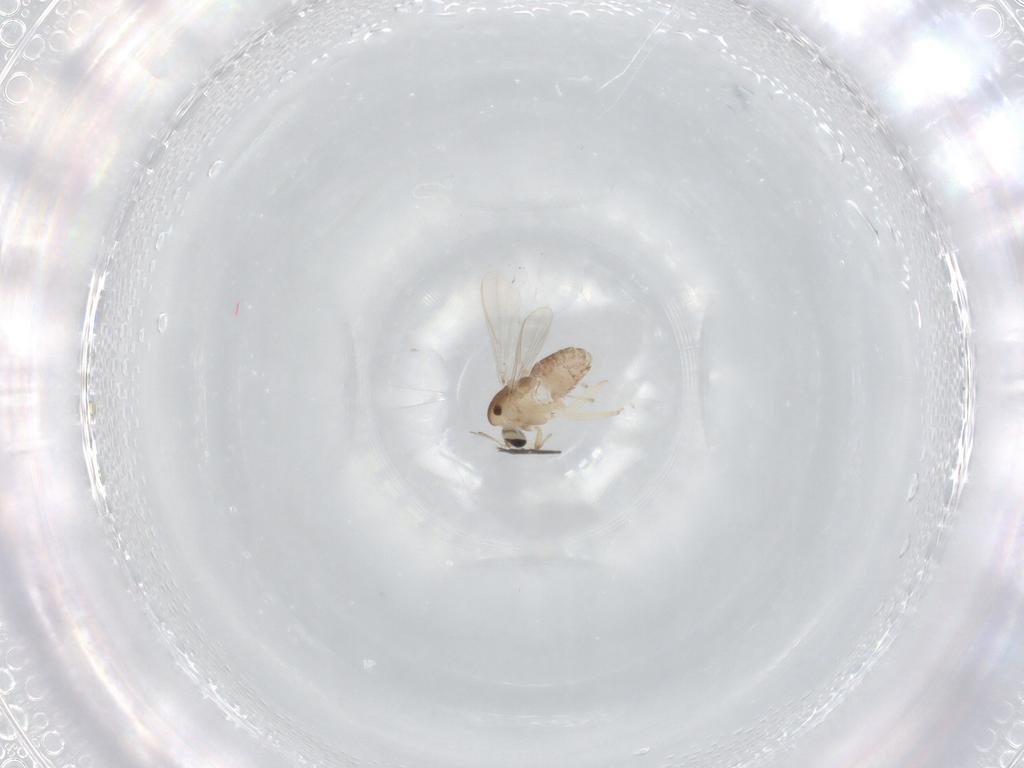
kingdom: Animalia
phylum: Arthropoda
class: Insecta
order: Diptera
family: Chironomidae
